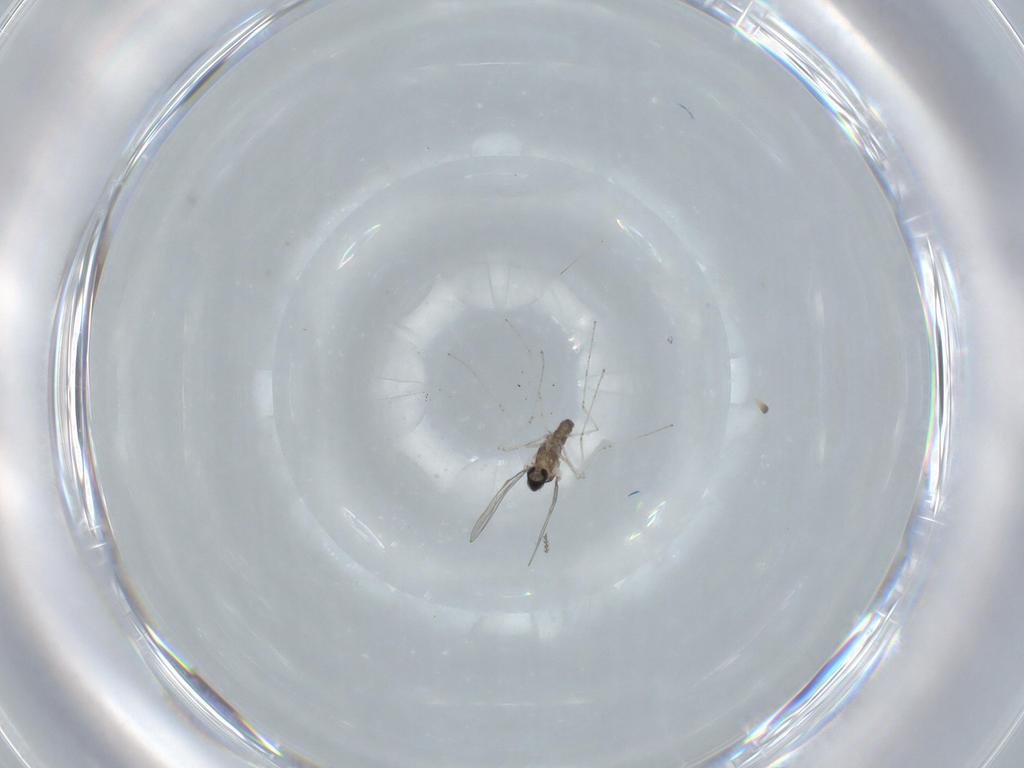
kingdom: Animalia
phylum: Arthropoda
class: Insecta
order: Diptera
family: Cecidomyiidae
